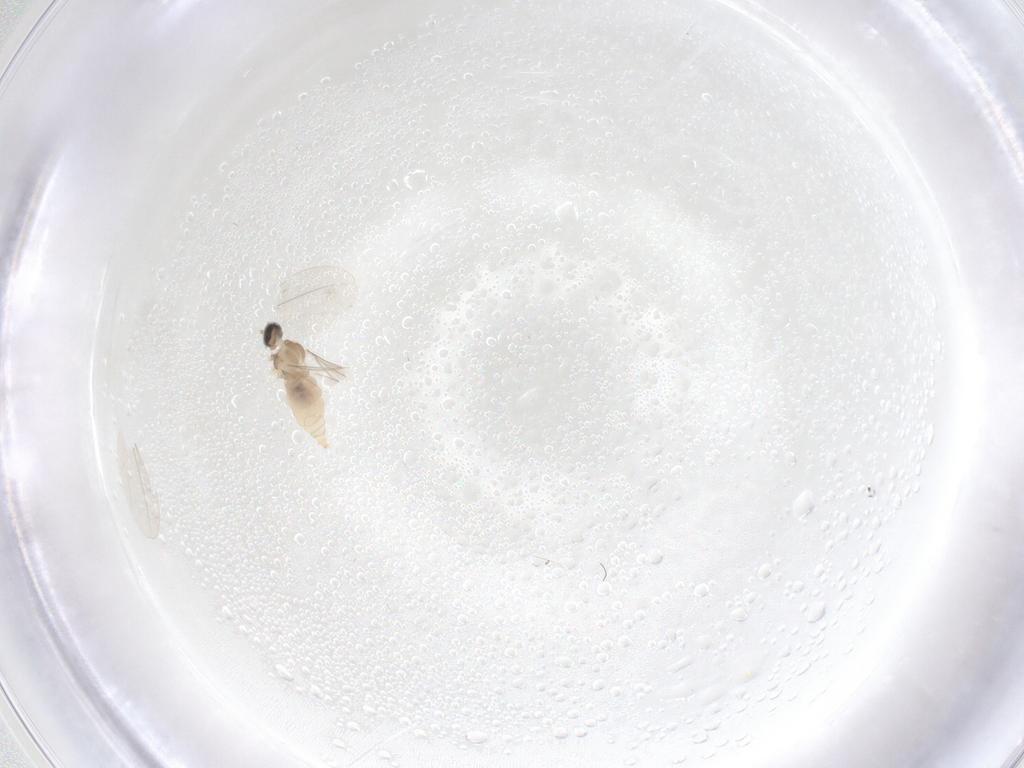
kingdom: Animalia
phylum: Arthropoda
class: Insecta
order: Diptera
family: Cecidomyiidae
